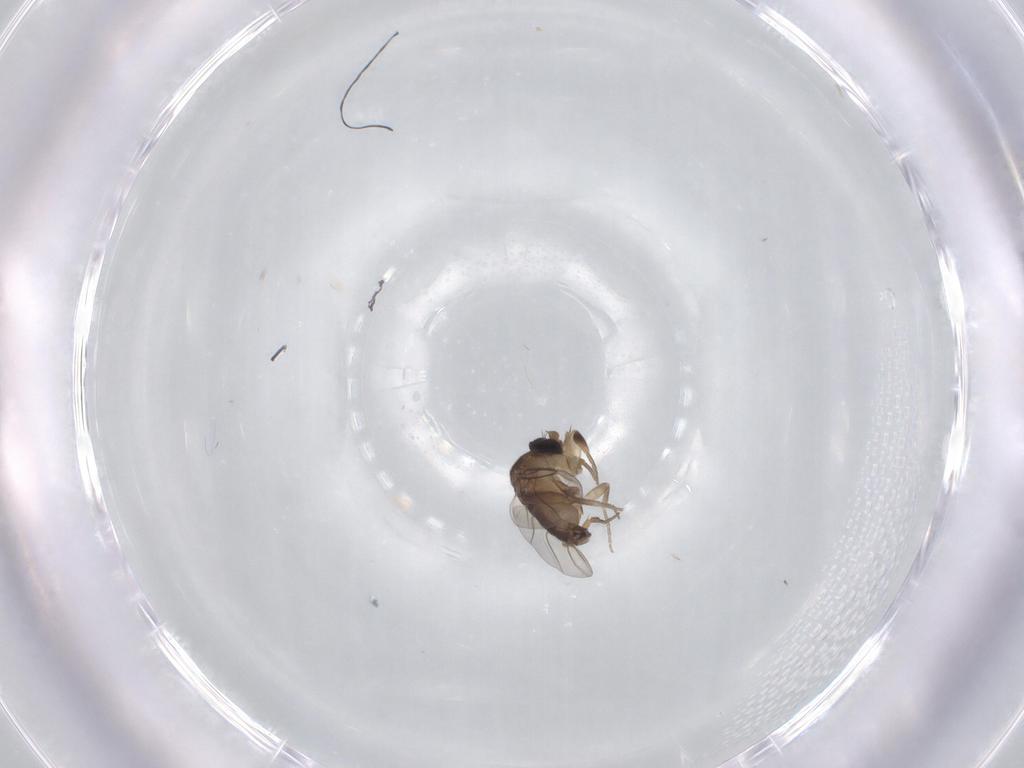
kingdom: Animalia
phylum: Arthropoda
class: Insecta
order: Diptera
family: Phoridae
